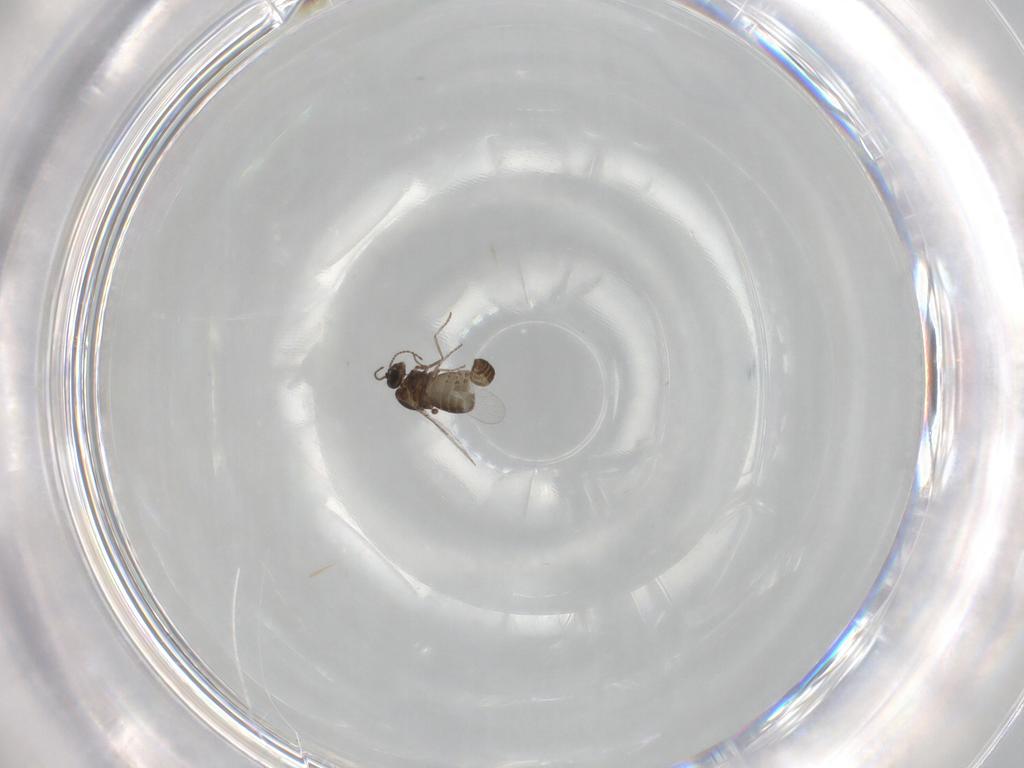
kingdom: Animalia
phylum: Arthropoda
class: Insecta
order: Diptera
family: Ceratopogonidae
